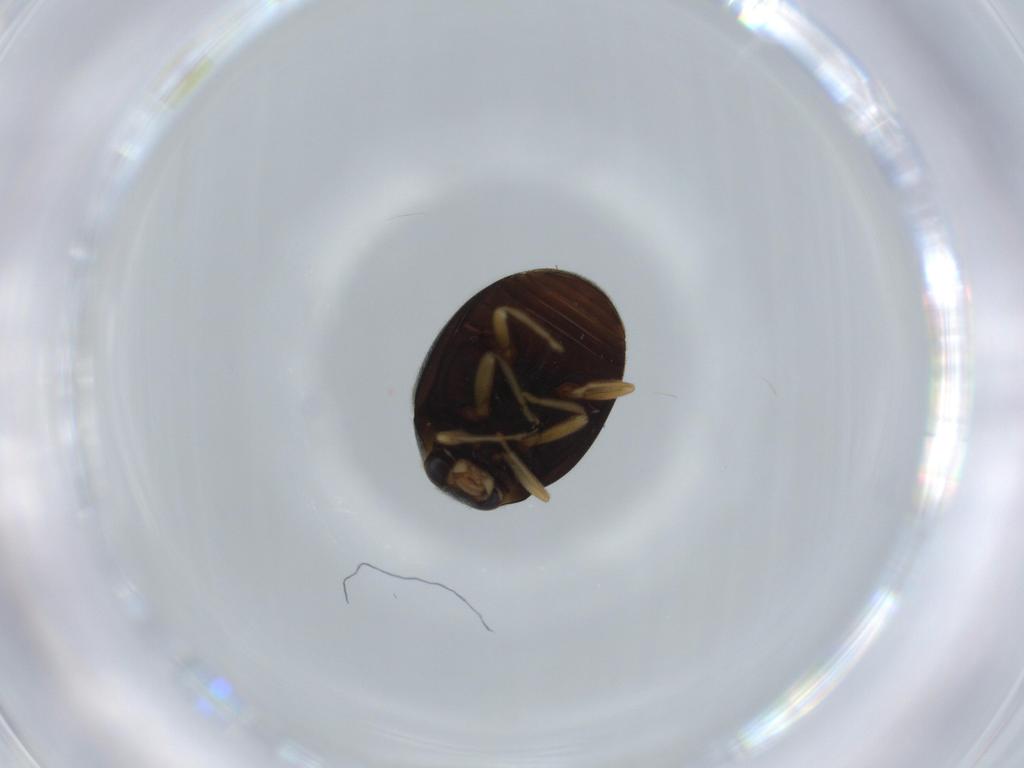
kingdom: Animalia
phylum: Arthropoda
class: Insecta
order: Coleoptera
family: Coccinellidae
